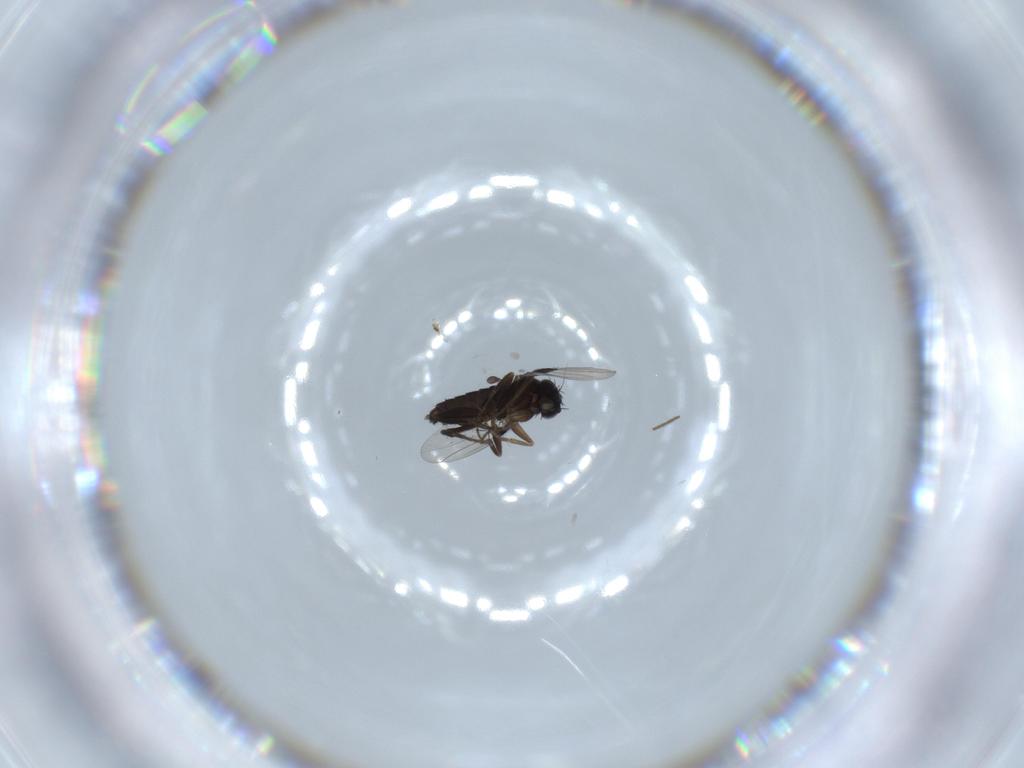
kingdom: Animalia
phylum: Arthropoda
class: Insecta
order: Diptera
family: Phoridae
